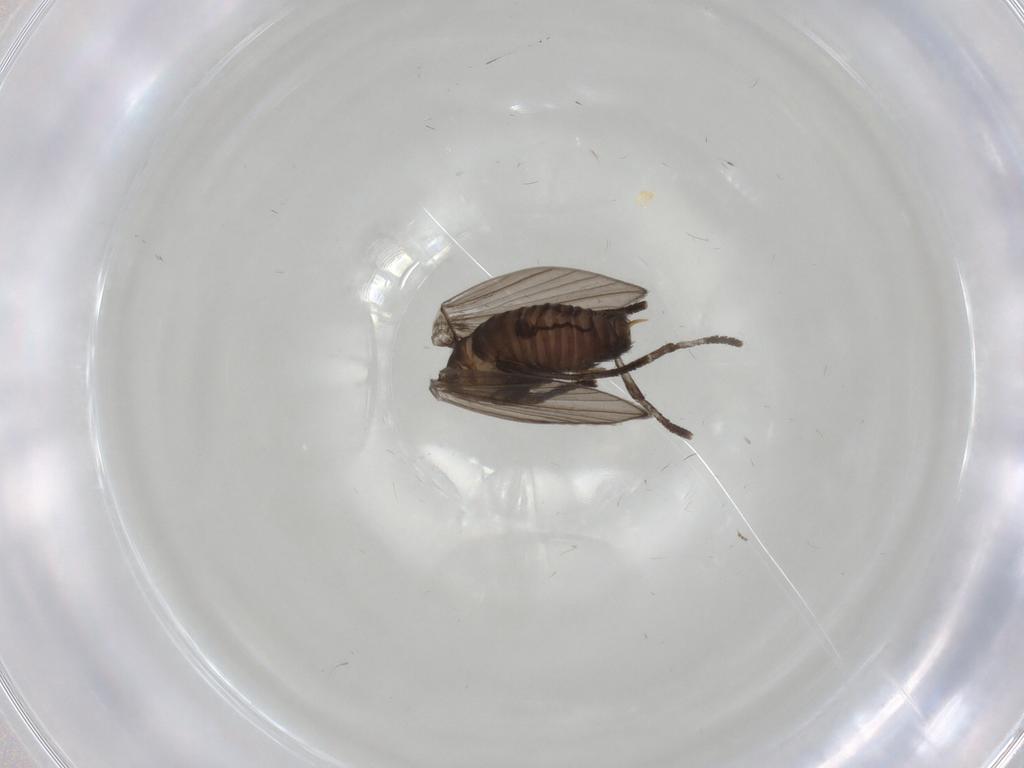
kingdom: Animalia
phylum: Arthropoda
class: Insecta
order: Diptera
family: Psychodidae
